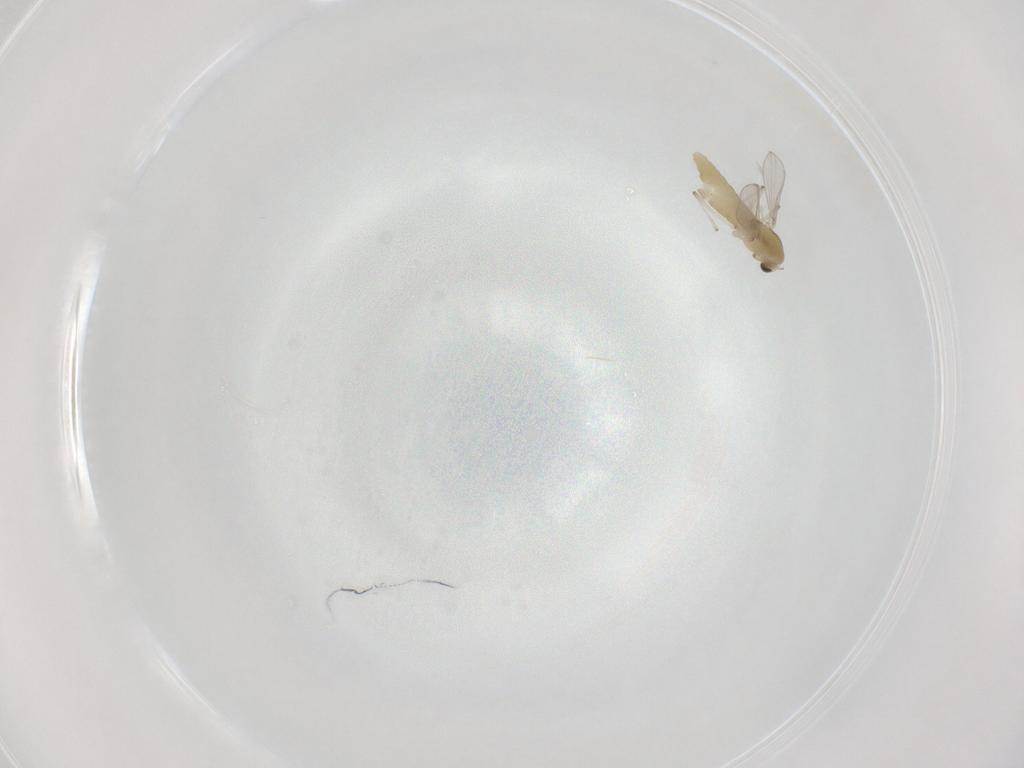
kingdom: Animalia
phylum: Arthropoda
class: Insecta
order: Diptera
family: Chironomidae
